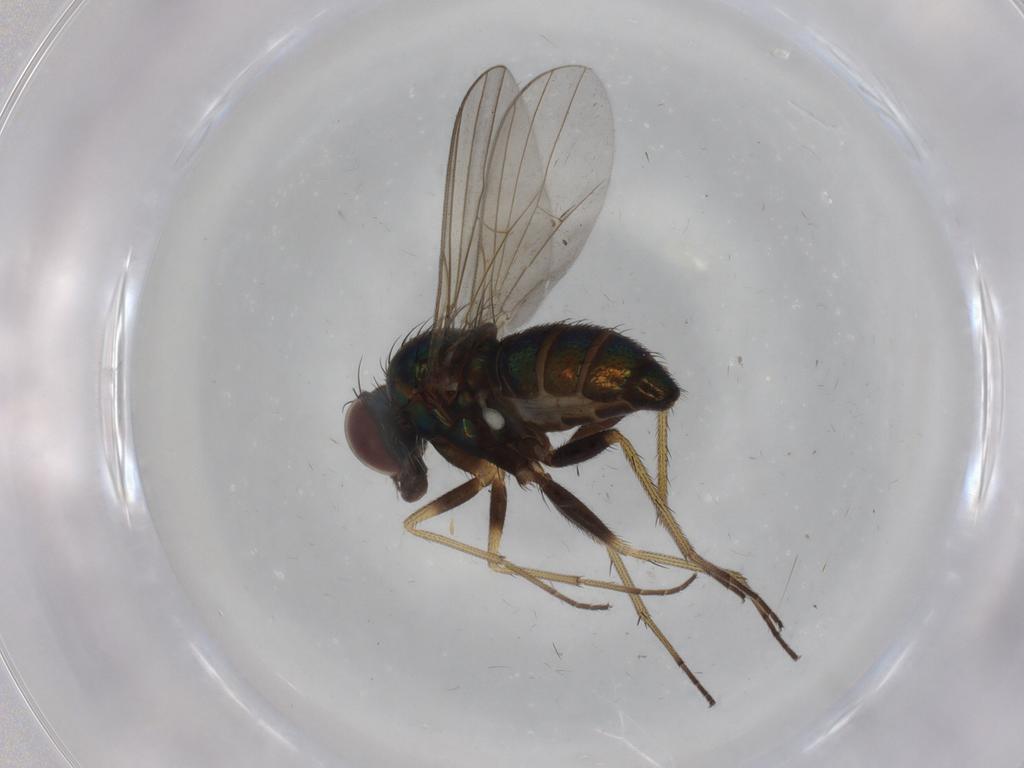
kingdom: Animalia
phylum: Arthropoda
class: Insecta
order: Diptera
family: Dolichopodidae
